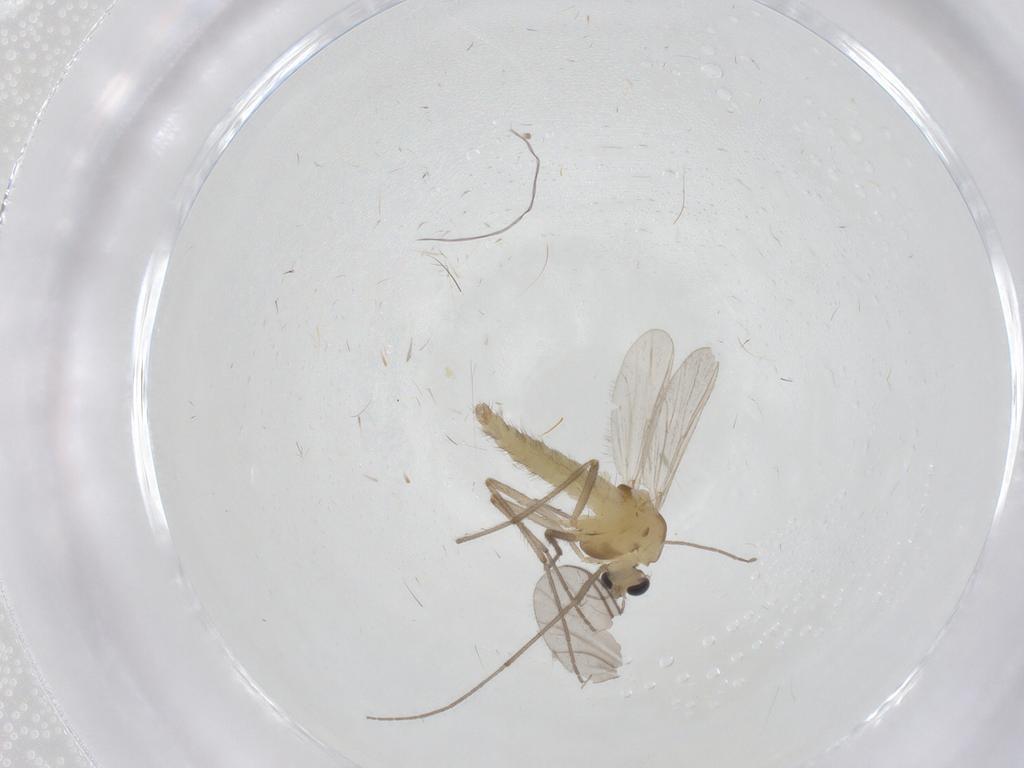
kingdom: Animalia
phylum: Arthropoda
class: Insecta
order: Diptera
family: Chironomidae
